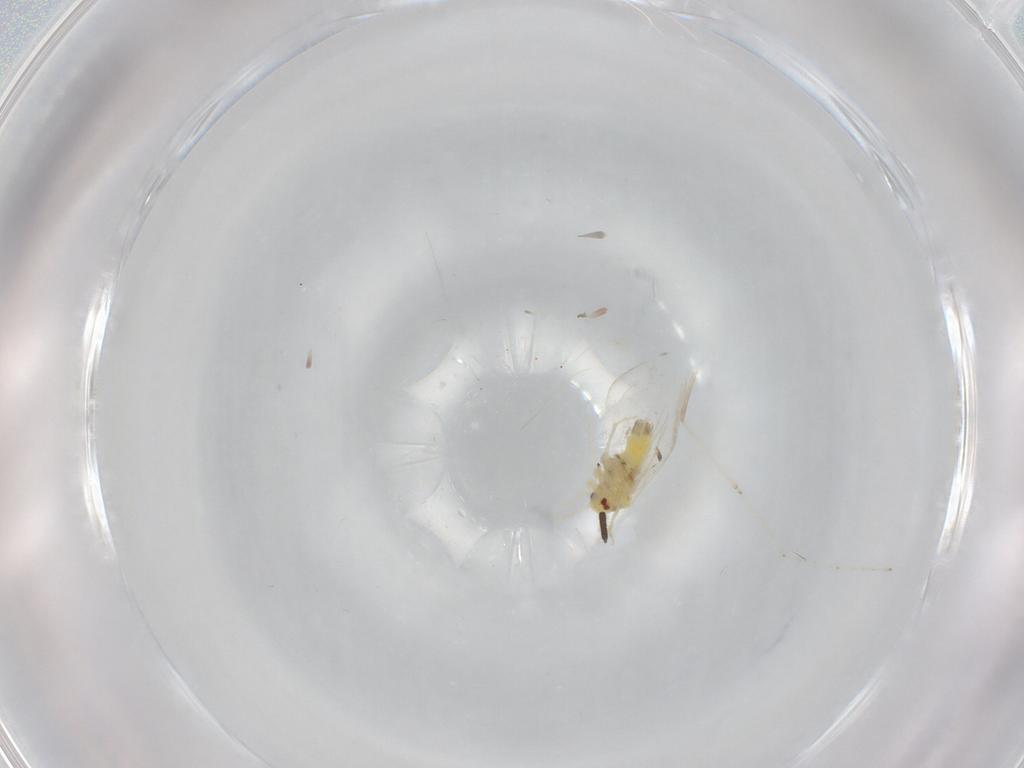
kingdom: Animalia
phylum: Arthropoda
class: Insecta
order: Hemiptera
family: Aleyrodidae
